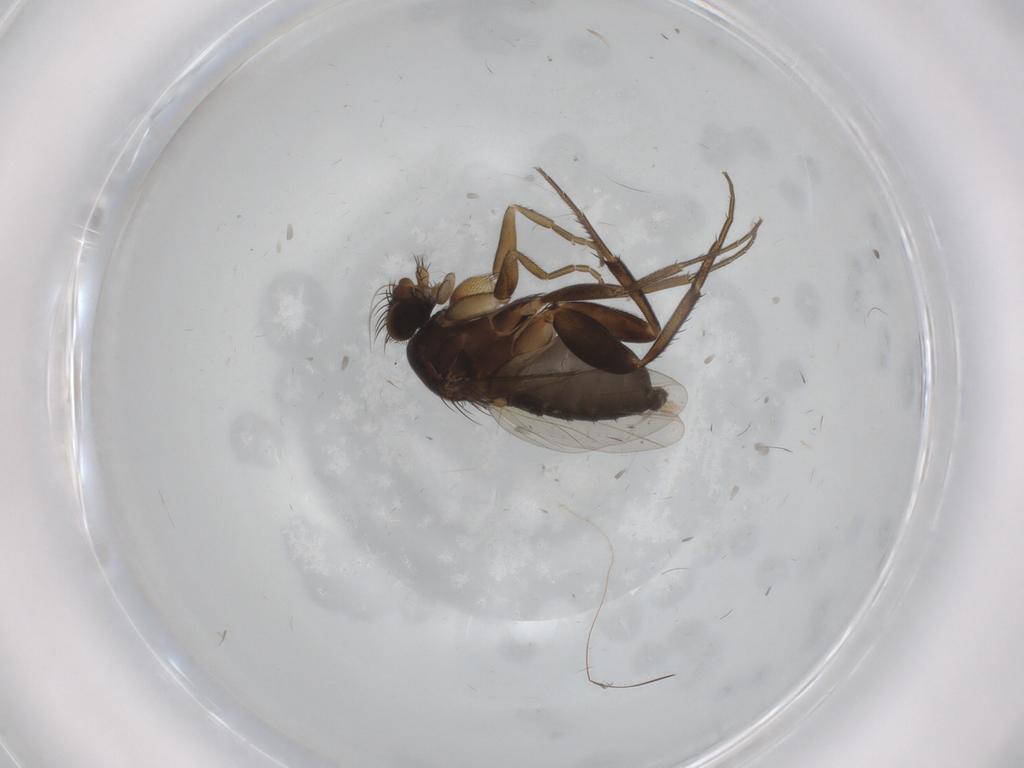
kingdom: Animalia
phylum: Arthropoda
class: Insecta
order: Diptera
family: Phoridae
